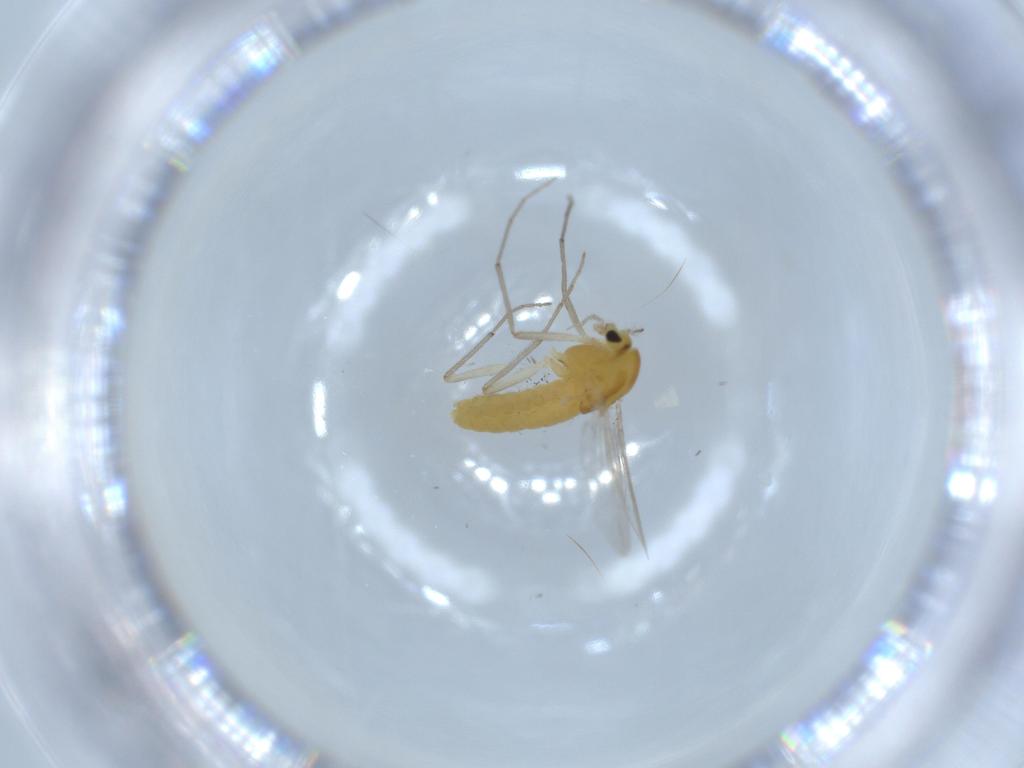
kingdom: Animalia
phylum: Arthropoda
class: Insecta
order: Diptera
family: Chironomidae
